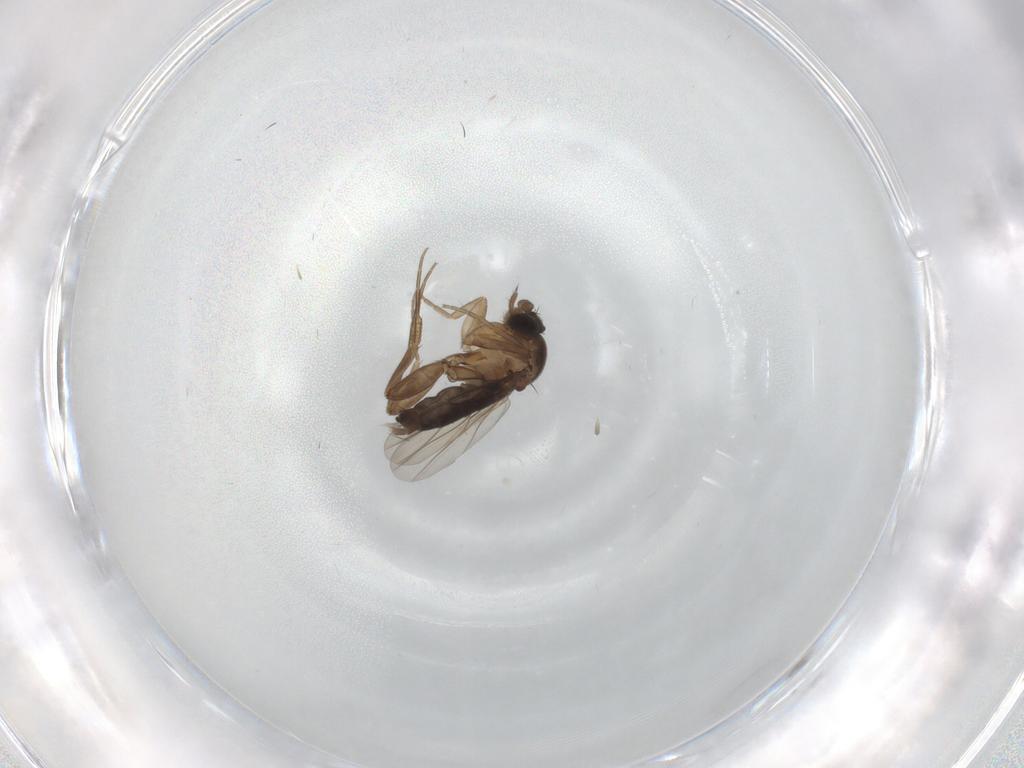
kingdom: Animalia
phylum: Arthropoda
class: Insecta
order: Diptera
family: Phoridae
